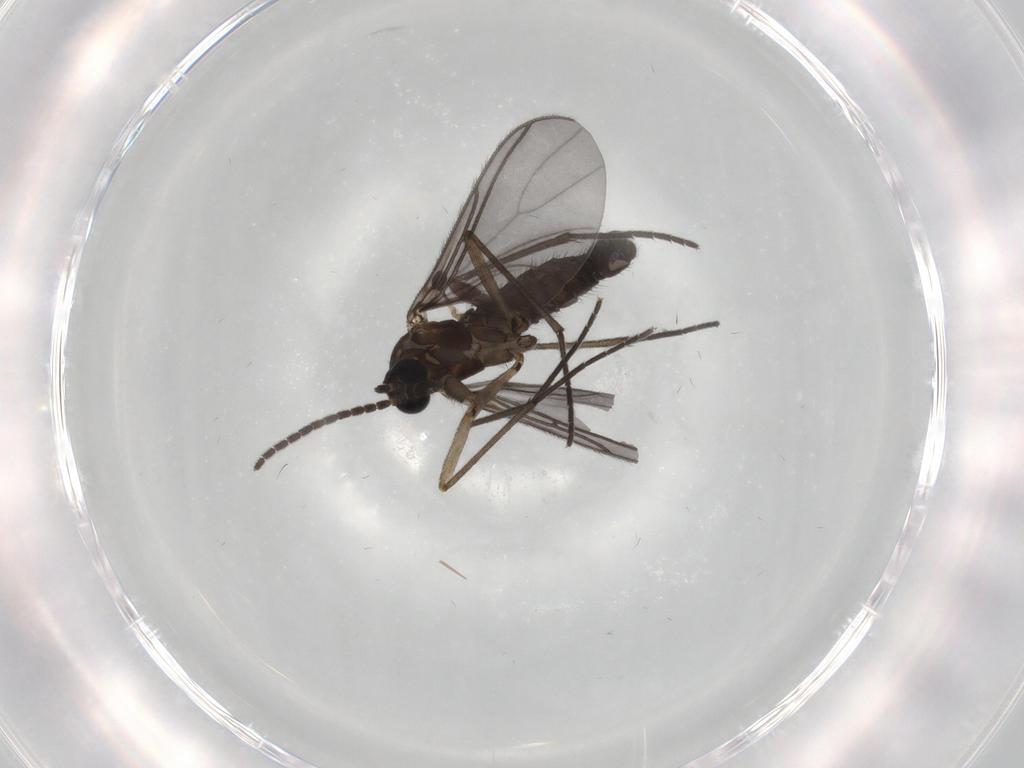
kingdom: Animalia
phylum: Arthropoda
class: Insecta
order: Diptera
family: Sciaridae
